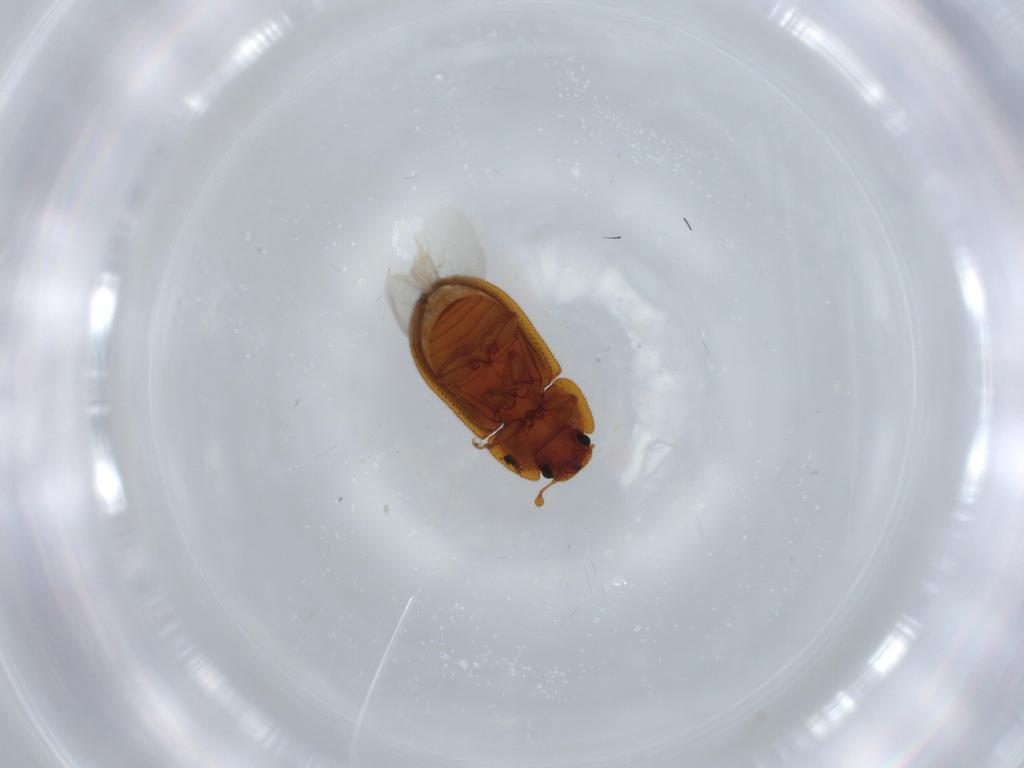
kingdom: Animalia
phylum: Arthropoda
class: Insecta
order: Coleoptera
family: Zopheridae
